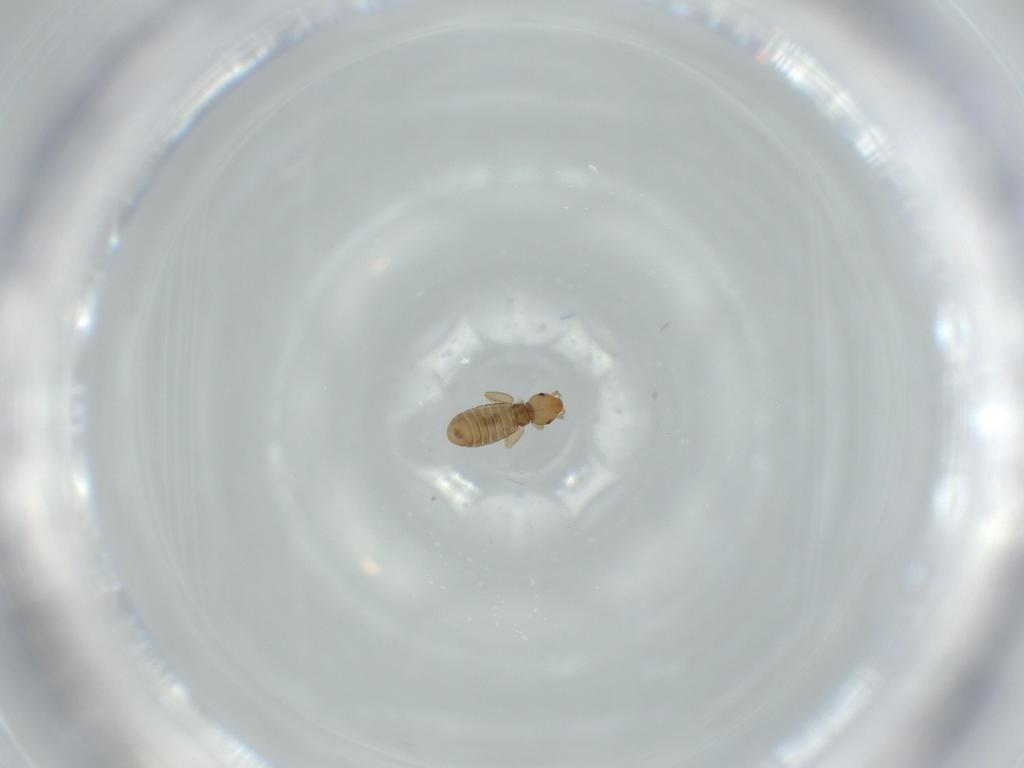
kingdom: Animalia
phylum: Arthropoda
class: Insecta
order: Psocodea
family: Liposcelididae
